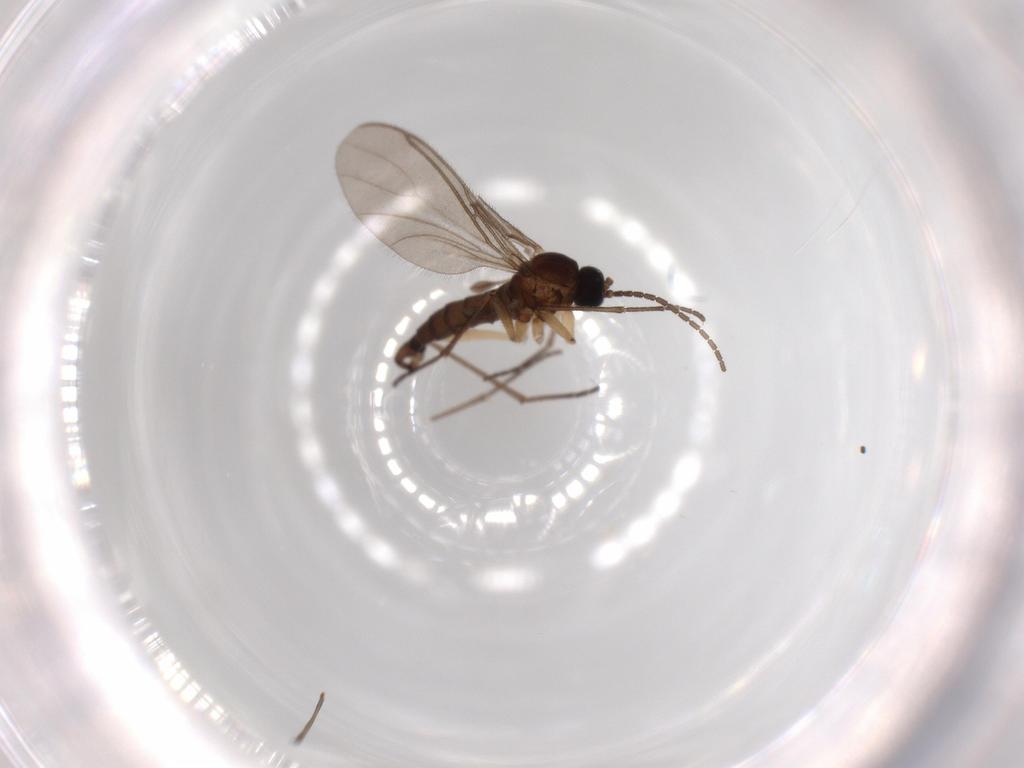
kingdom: Animalia
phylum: Arthropoda
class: Insecta
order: Diptera
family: Sciaridae
